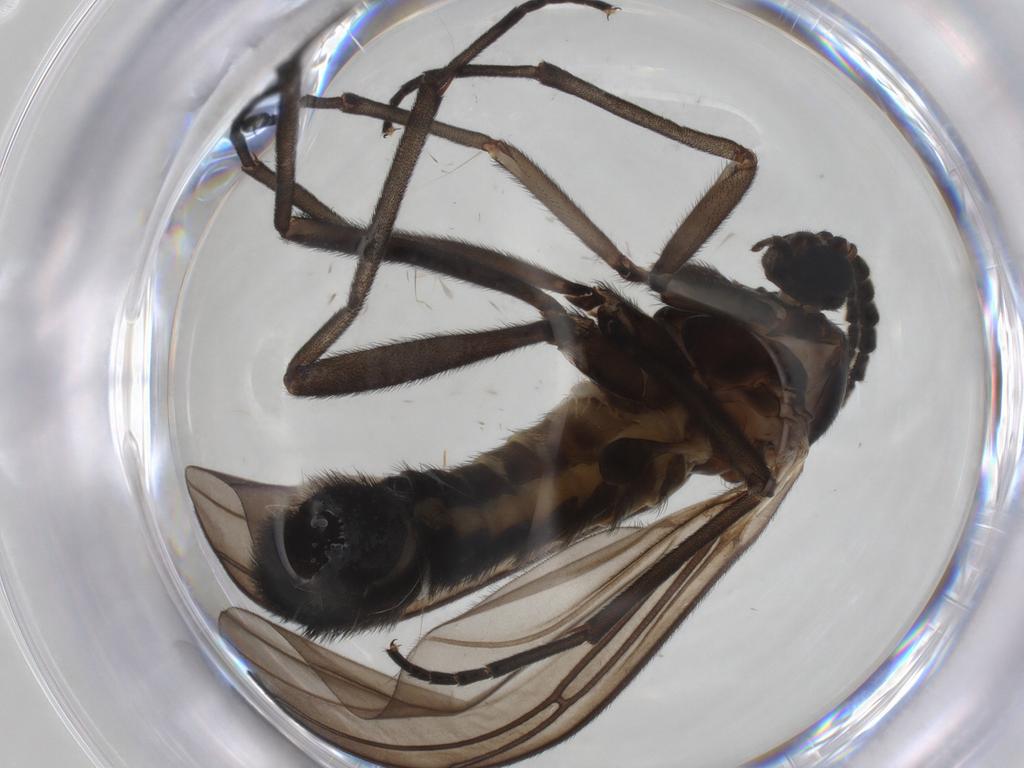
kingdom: Animalia
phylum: Arthropoda
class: Insecta
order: Diptera
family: Sciaridae
